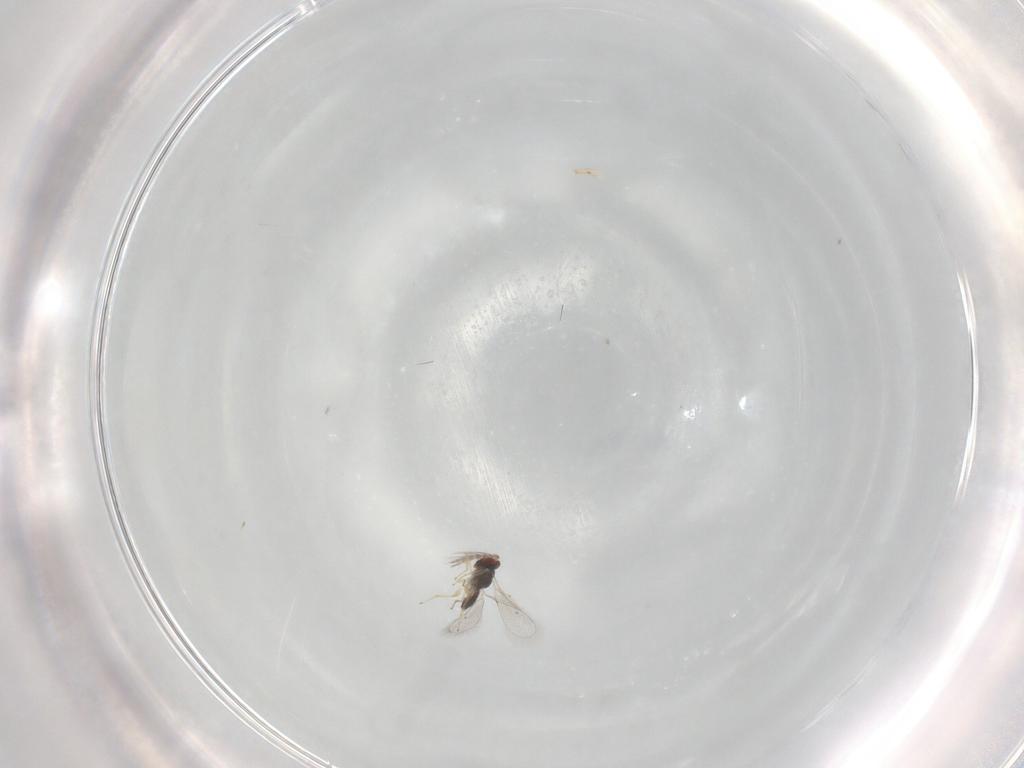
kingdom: Animalia
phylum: Arthropoda
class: Insecta
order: Hymenoptera
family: Eulophidae
